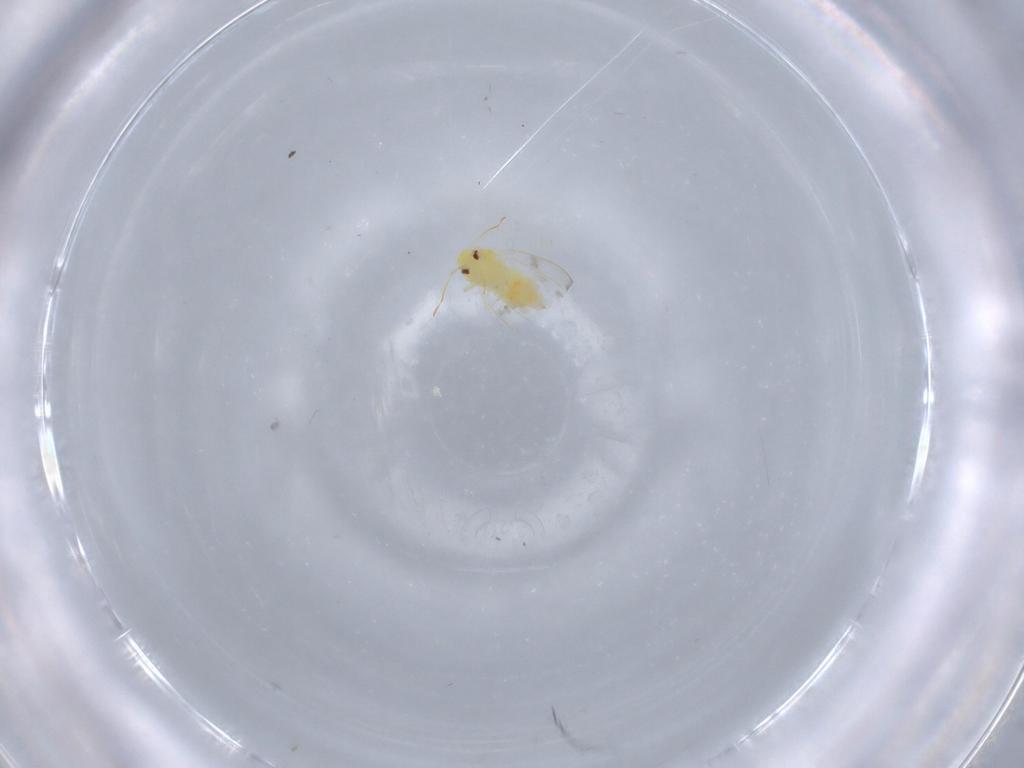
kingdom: Animalia
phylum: Arthropoda
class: Insecta
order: Hemiptera
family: Aleyrodidae
